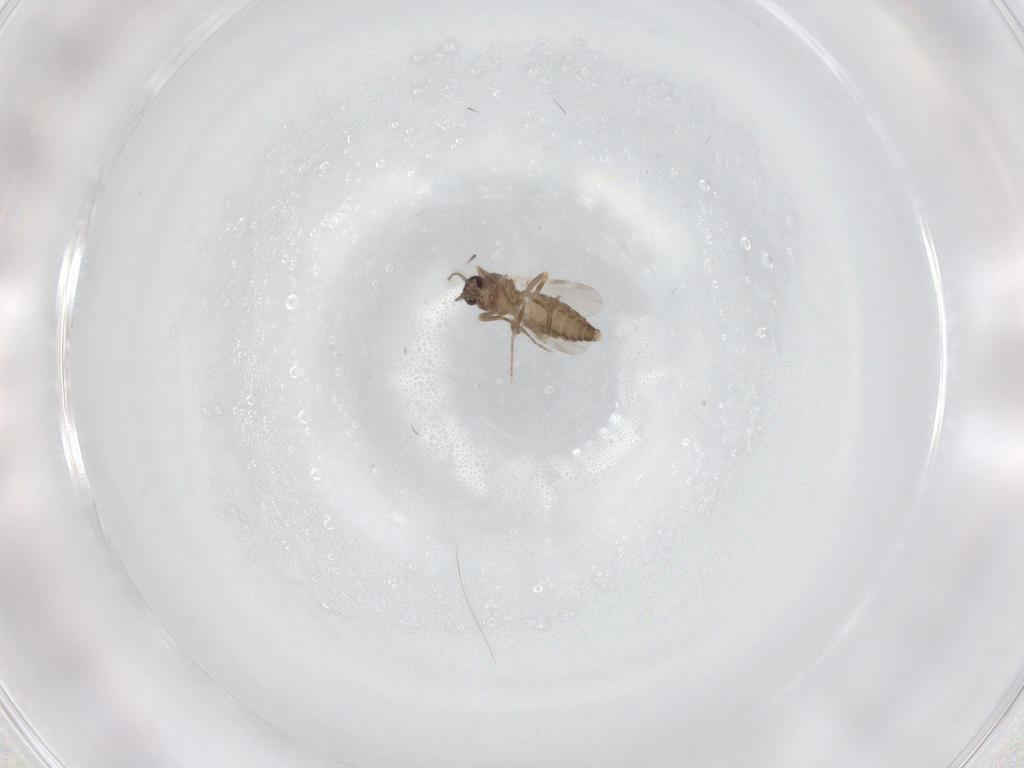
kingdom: Animalia
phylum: Arthropoda
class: Insecta
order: Diptera
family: Ceratopogonidae
